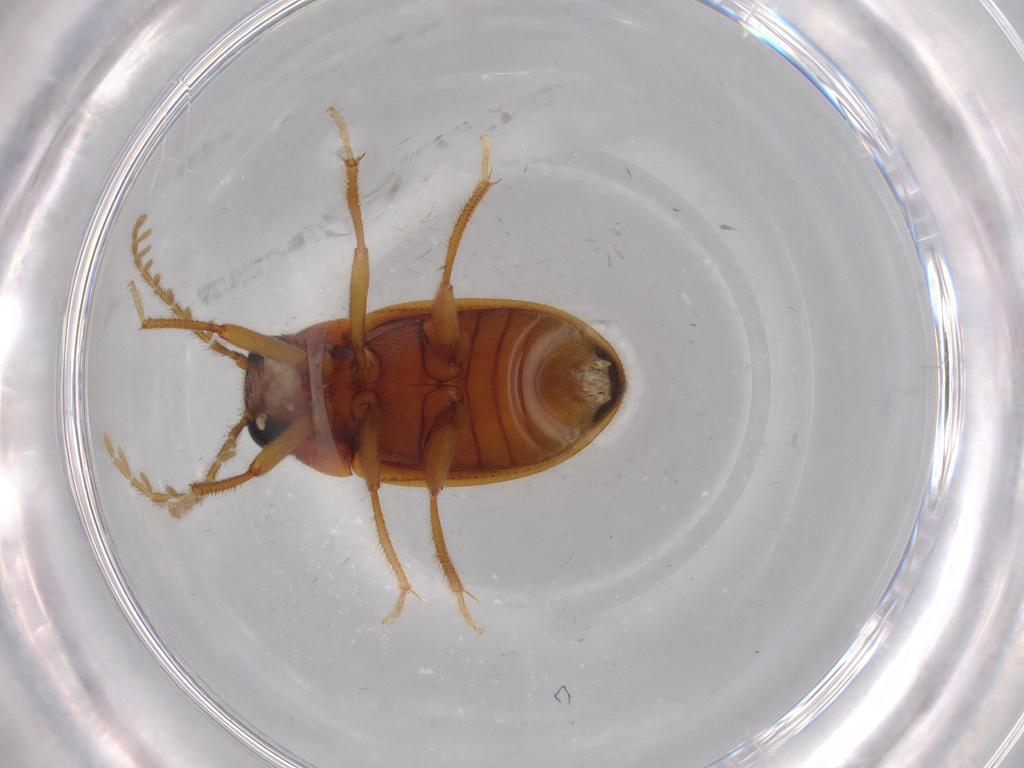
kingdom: Animalia
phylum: Arthropoda
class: Insecta
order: Coleoptera
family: Ptilodactylidae
